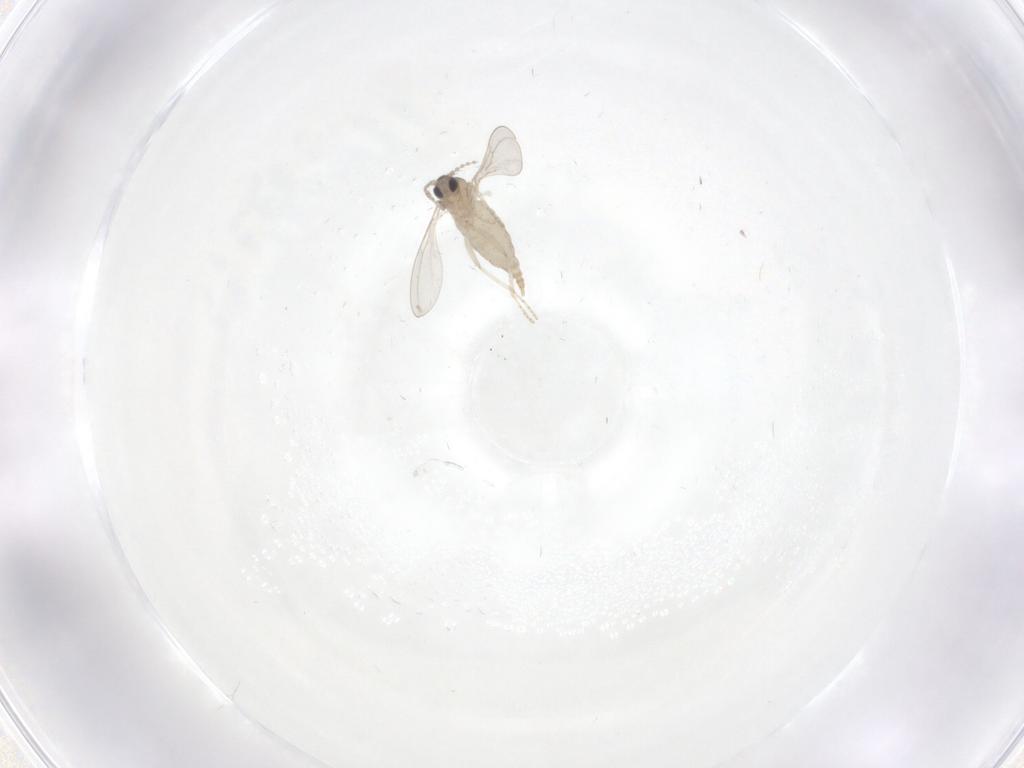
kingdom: Animalia
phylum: Arthropoda
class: Insecta
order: Diptera
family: Cecidomyiidae
